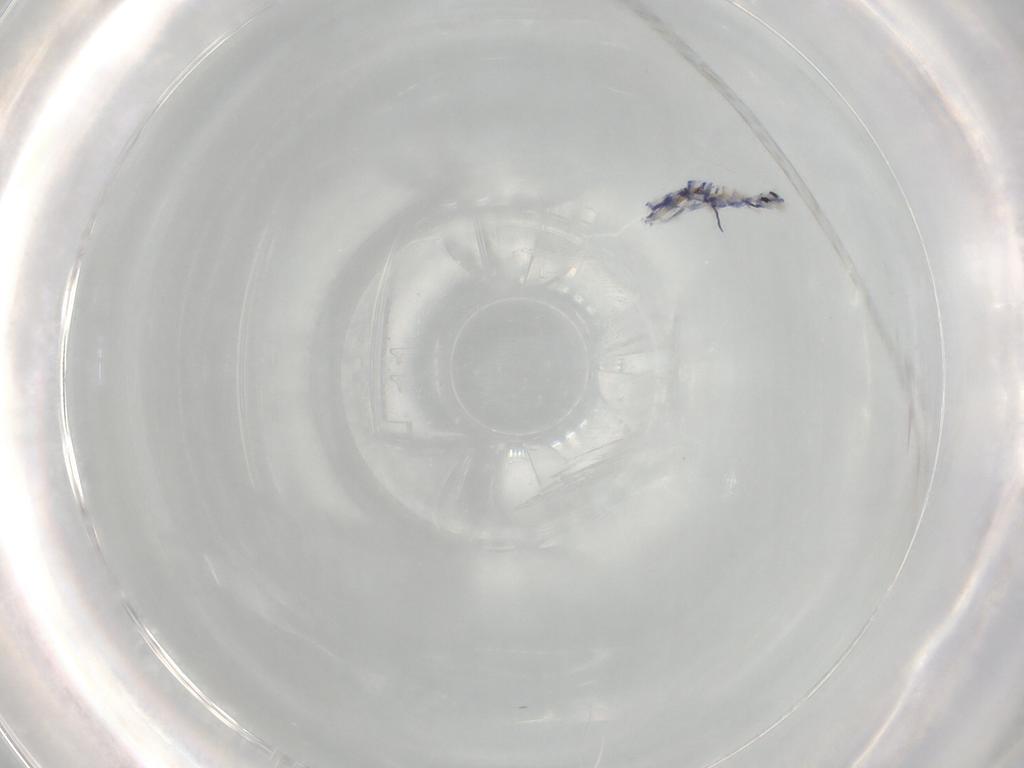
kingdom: Animalia
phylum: Arthropoda
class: Collembola
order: Entomobryomorpha
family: Entomobryidae
